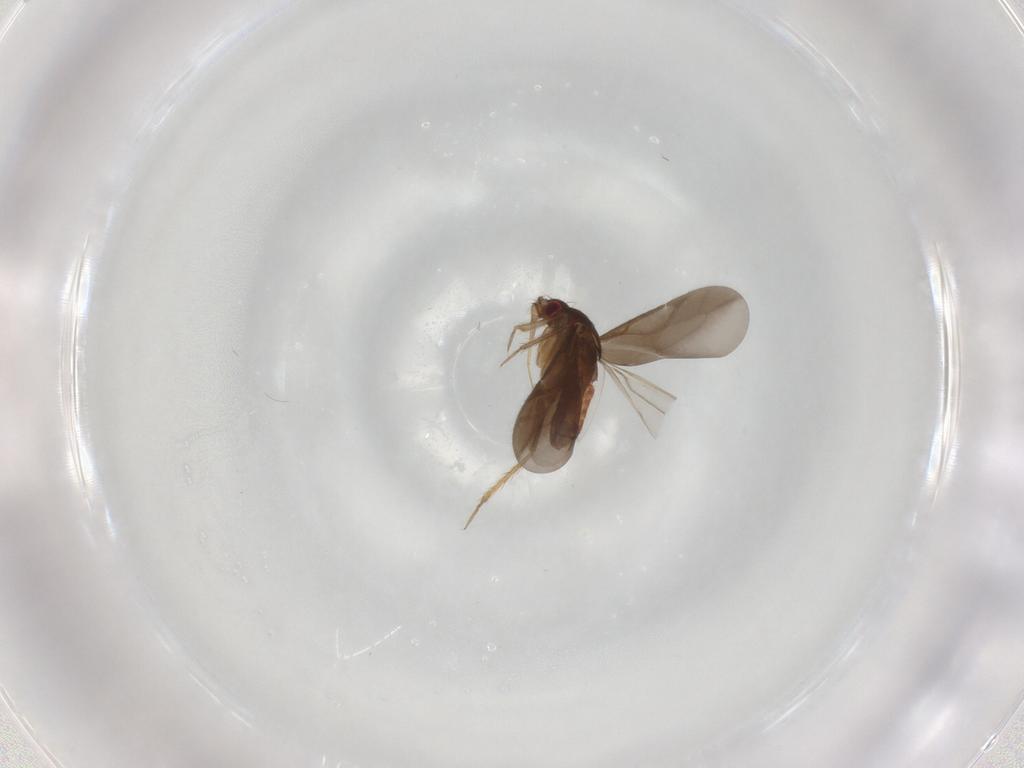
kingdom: Animalia
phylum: Arthropoda
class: Insecta
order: Hemiptera
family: Ceratocombidae
